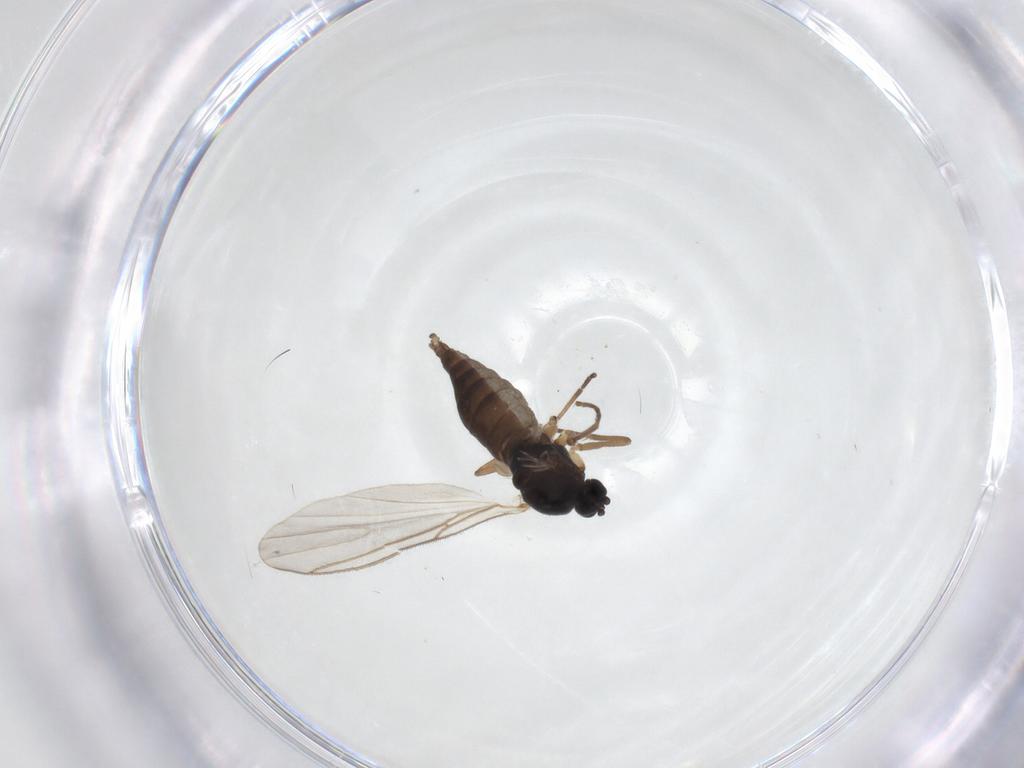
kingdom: Animalia
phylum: Arthropoda
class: Insecta
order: Diptera
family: Sciaridae
